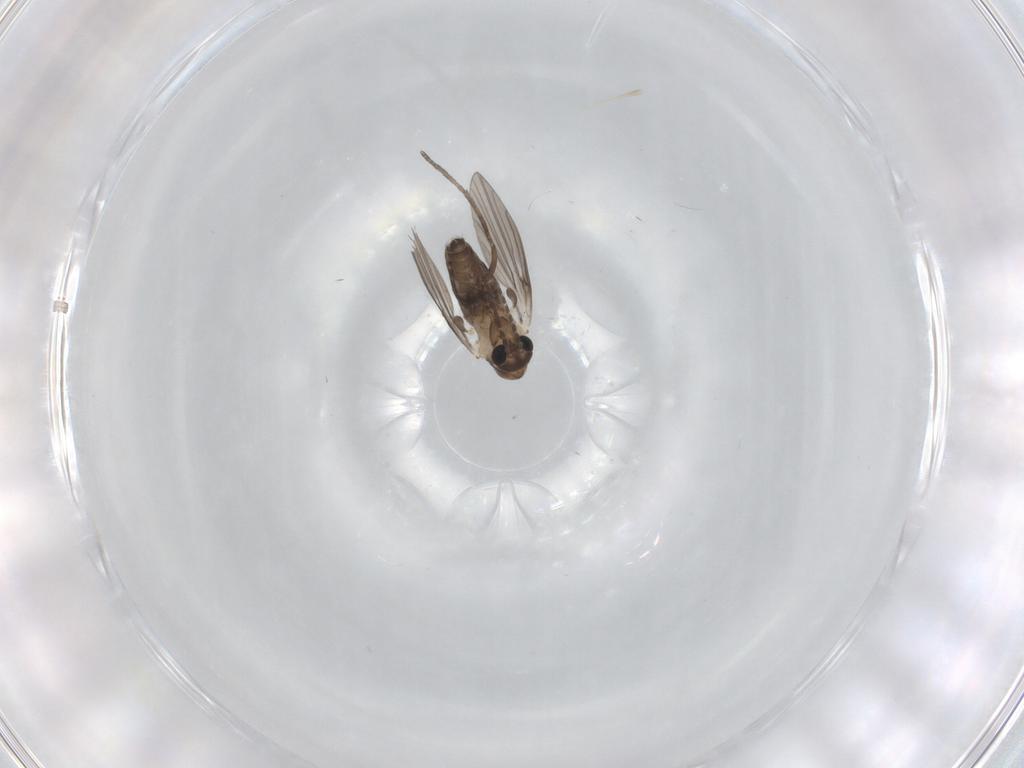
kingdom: Animalia
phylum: Arthropoda
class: Insecta
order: Diptera
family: Psychodidae
